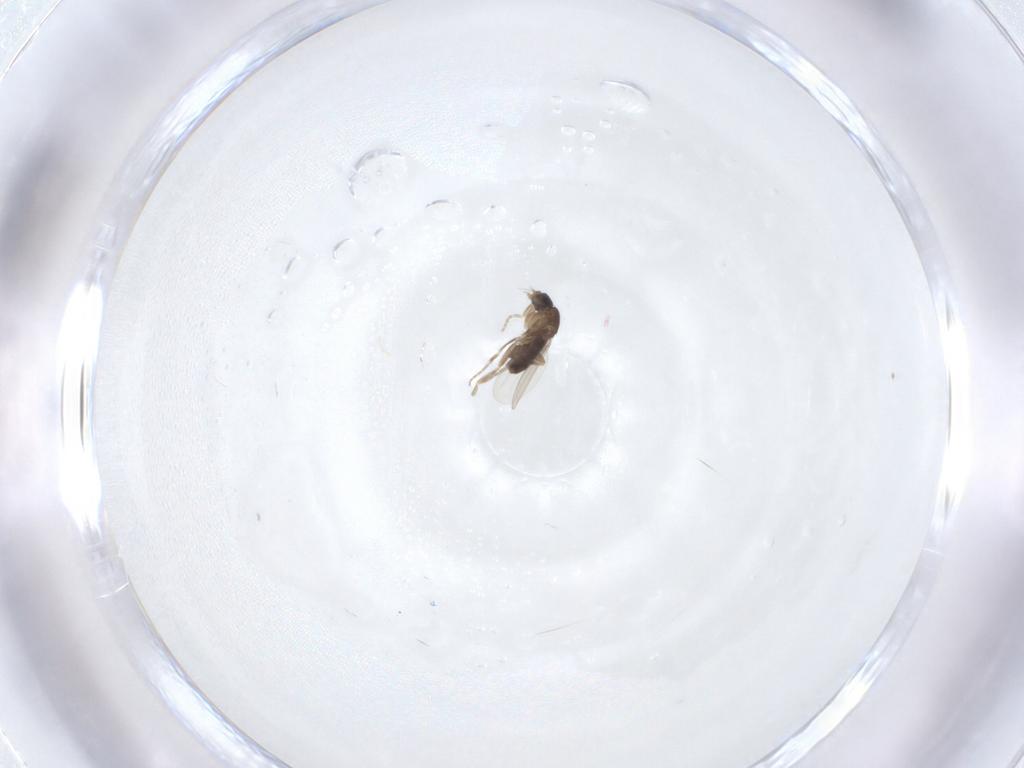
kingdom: Animalia
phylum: Arthropoda
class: Insecta
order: Diptera
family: Phoridae
